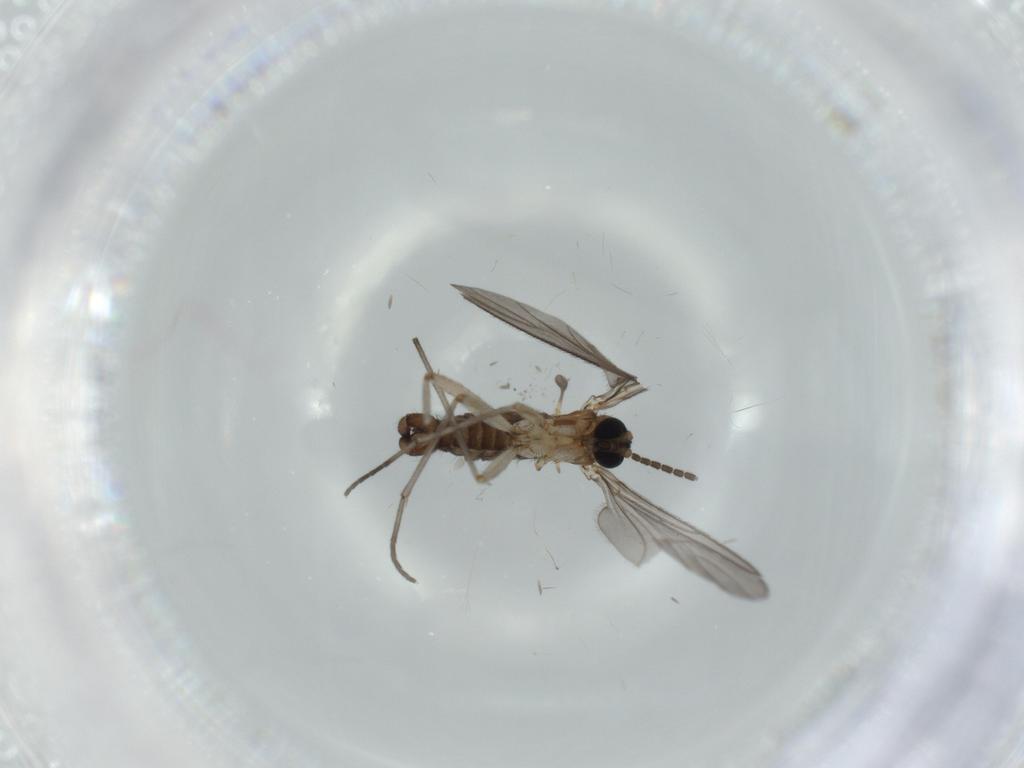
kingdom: Animalia
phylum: Arthropoda
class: Insecta
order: Diptera
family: Sciaridae
